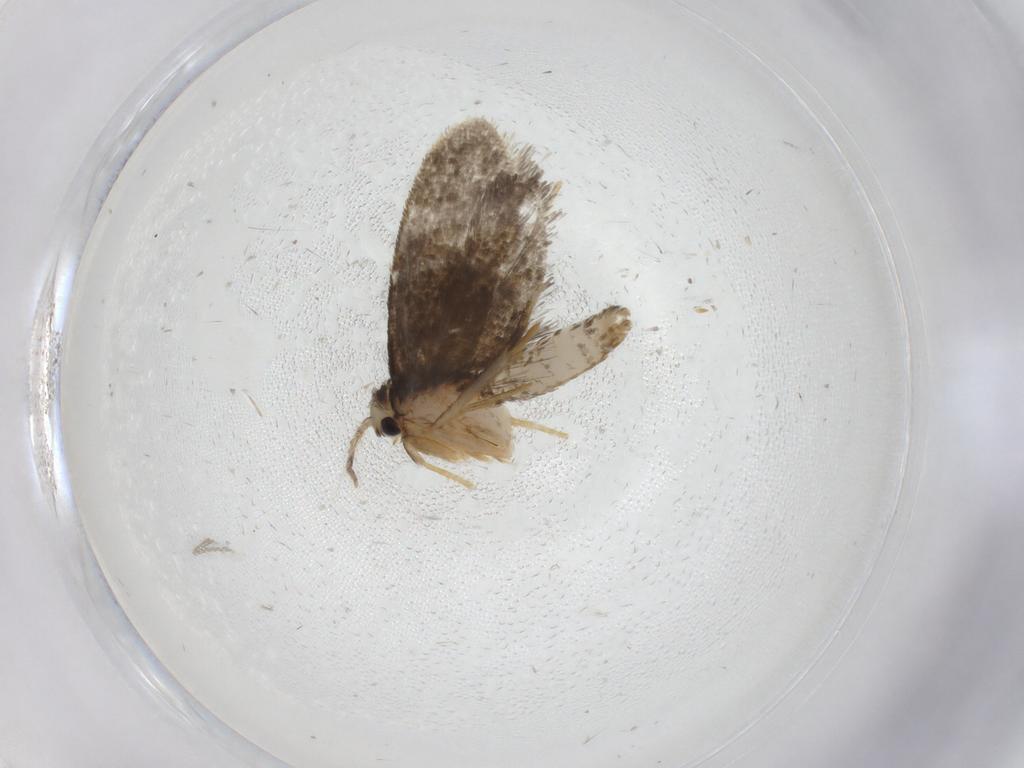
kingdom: Animalia
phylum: Arthropoda
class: Insecta
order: Lepidoptera
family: Psychidae
